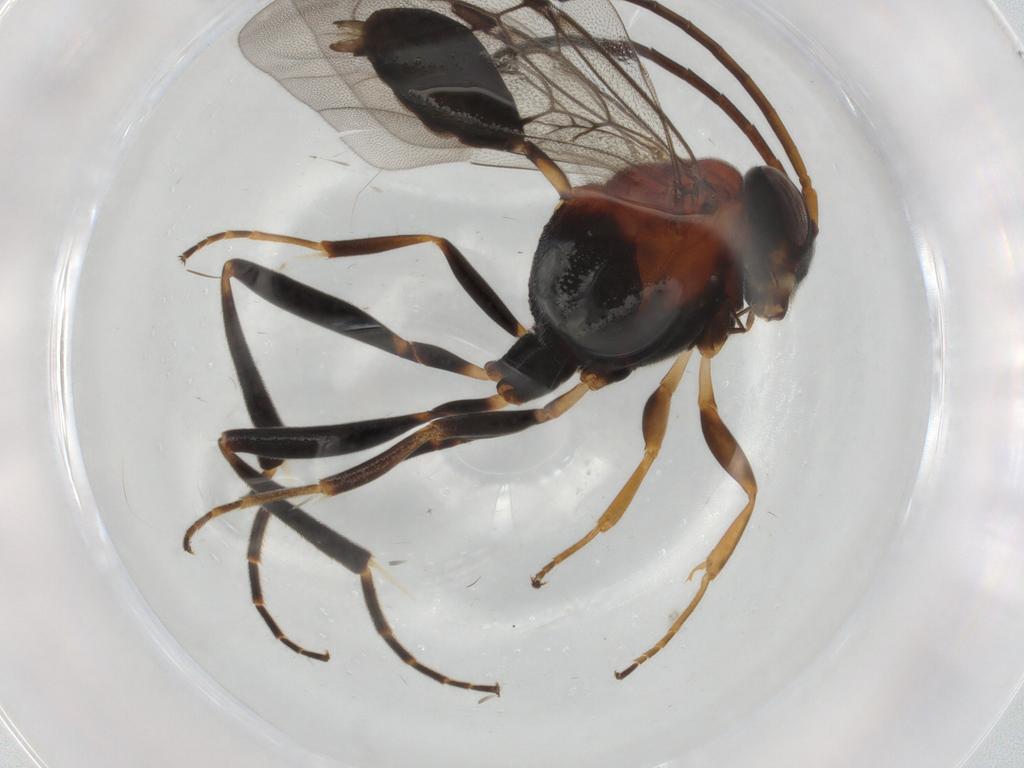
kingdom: Animalia
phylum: Arthropoda
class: Insecta
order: Hymenoptera
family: Evaniidae
